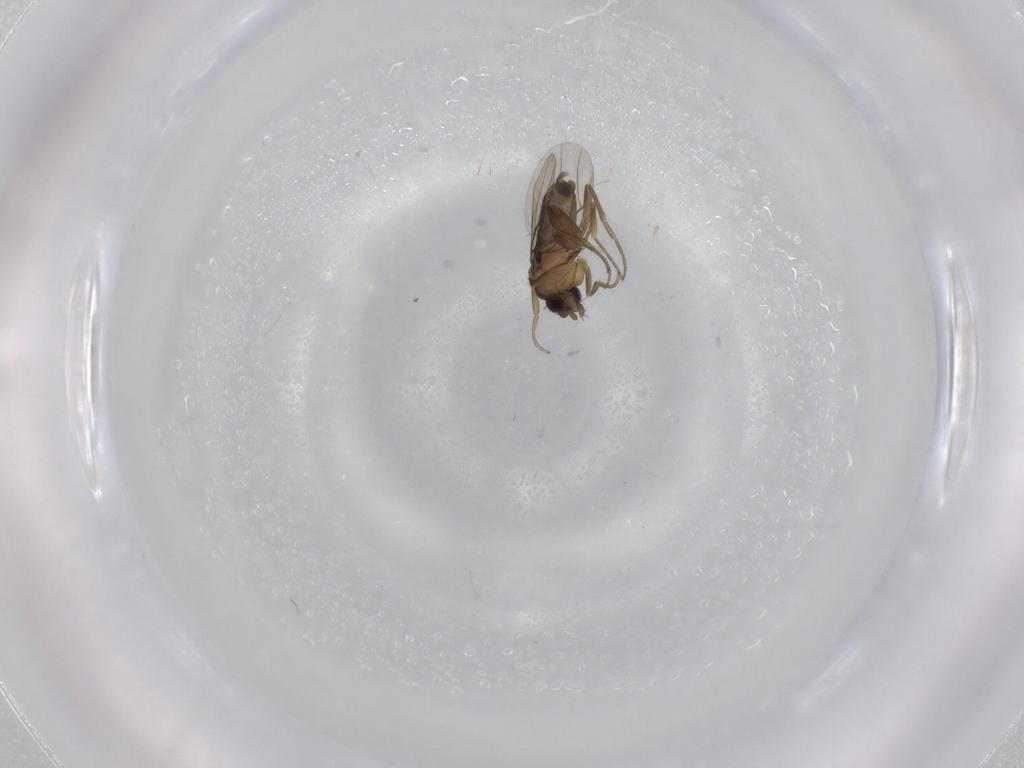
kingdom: Animalia
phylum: Arthropoda
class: Insecta
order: Diptera
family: Phoridae
